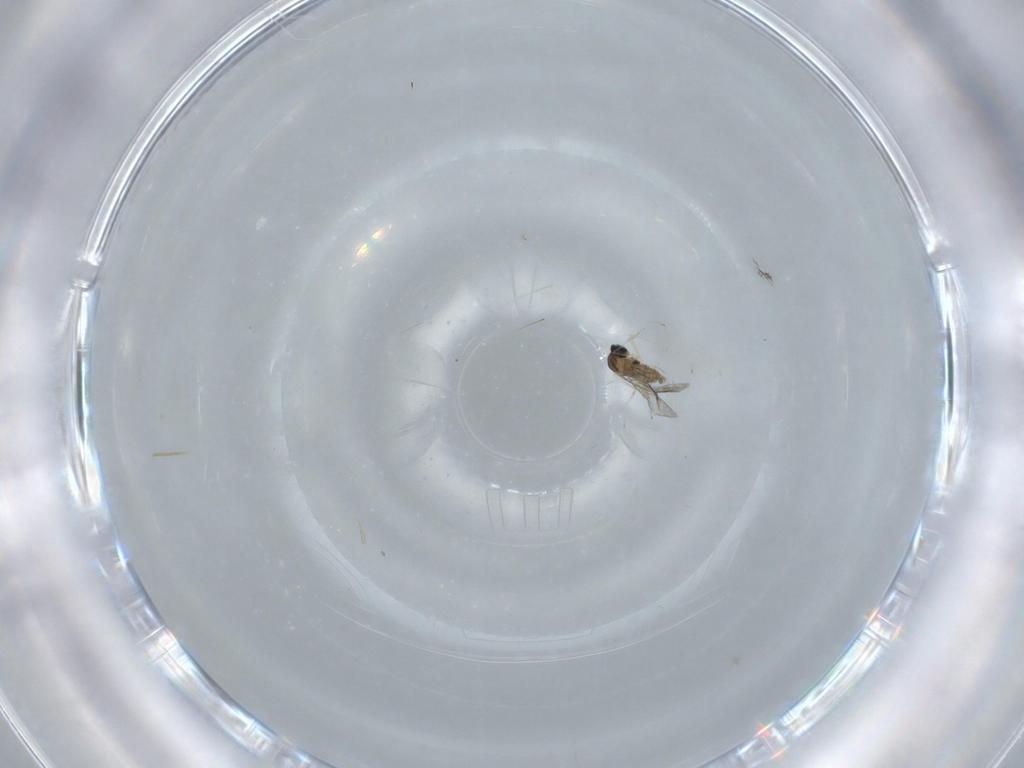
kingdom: Animalia
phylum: Arthropoda
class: Insecta
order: Diptera
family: Cecidomyiidae
